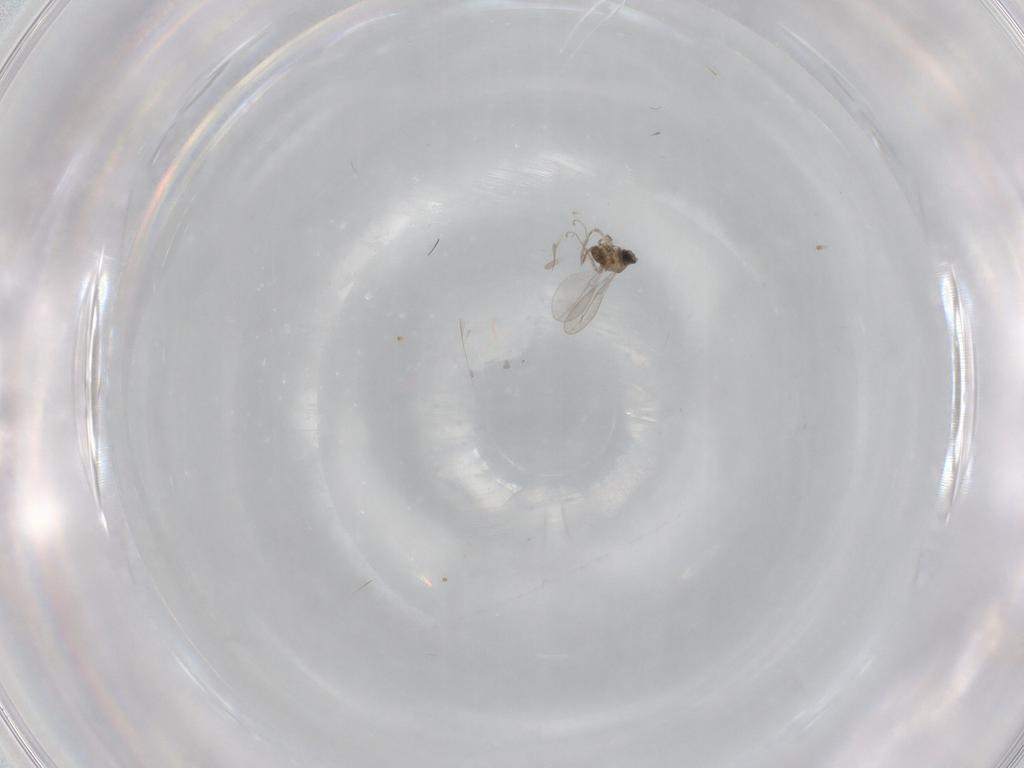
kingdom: Animalia
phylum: Arthropoda
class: Insecta
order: Diptera
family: Cecidomyiidae
